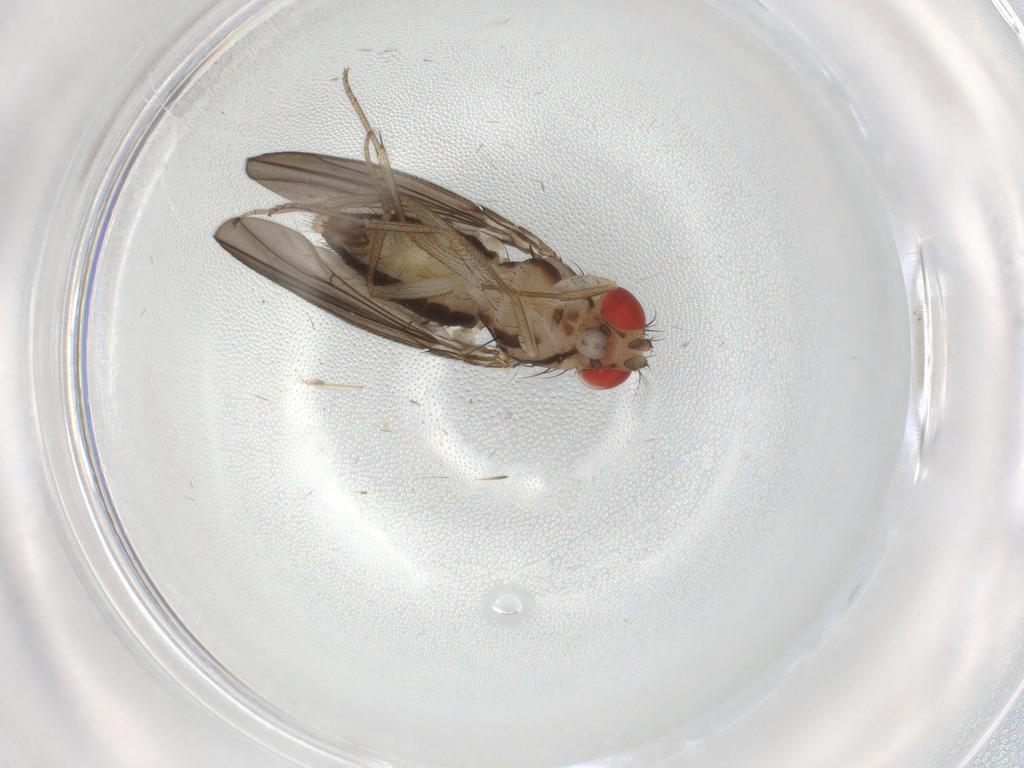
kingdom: Animalia
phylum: Arthropoda
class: Insecta
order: Diptera
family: Drosophilidae
